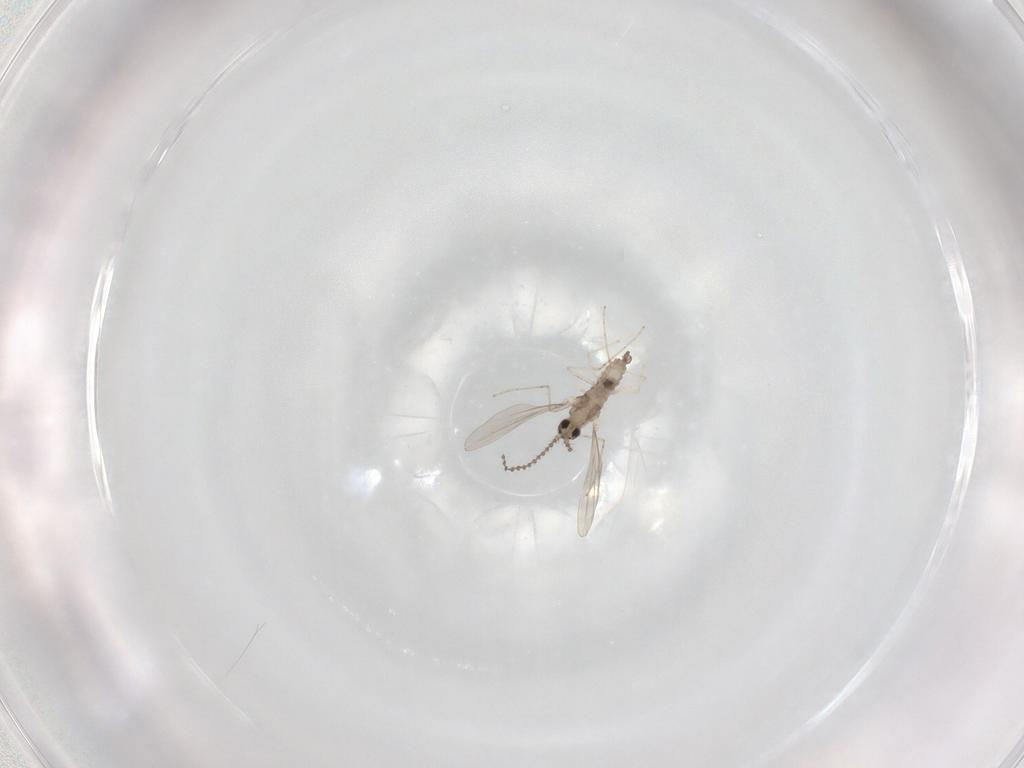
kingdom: Animalia
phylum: Arthropoda
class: Insecta
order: Diptera
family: Cecidomyiidae
